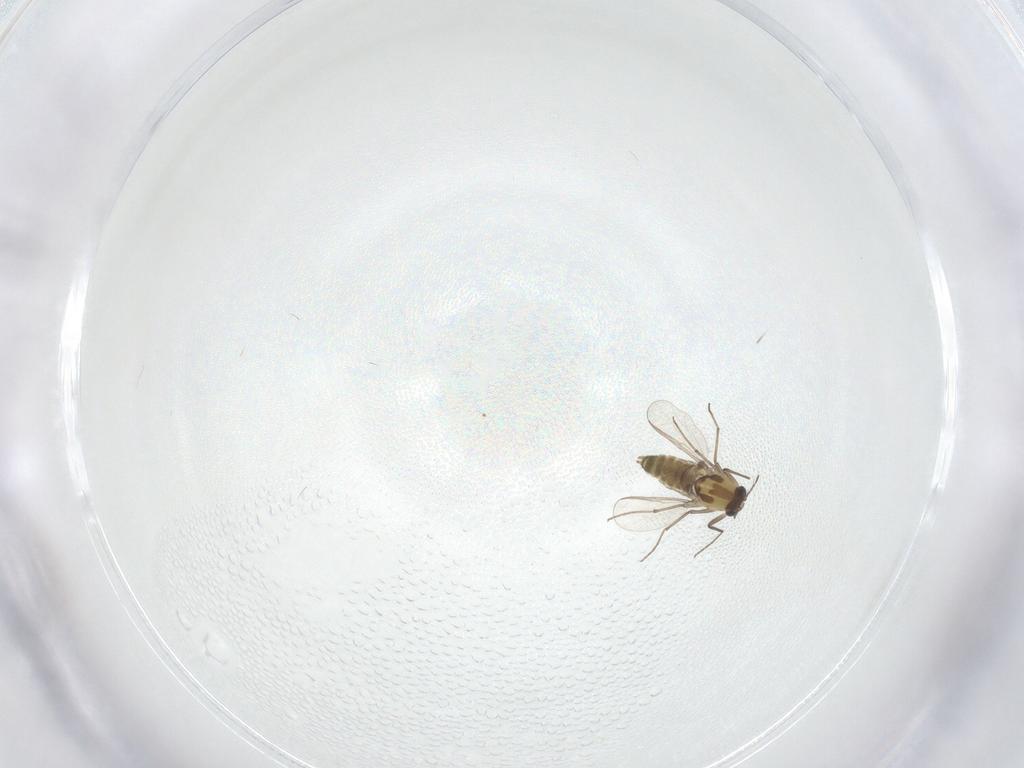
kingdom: Animalia
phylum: Arthropoda
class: Insecta
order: Diptera
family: Chironomidae
